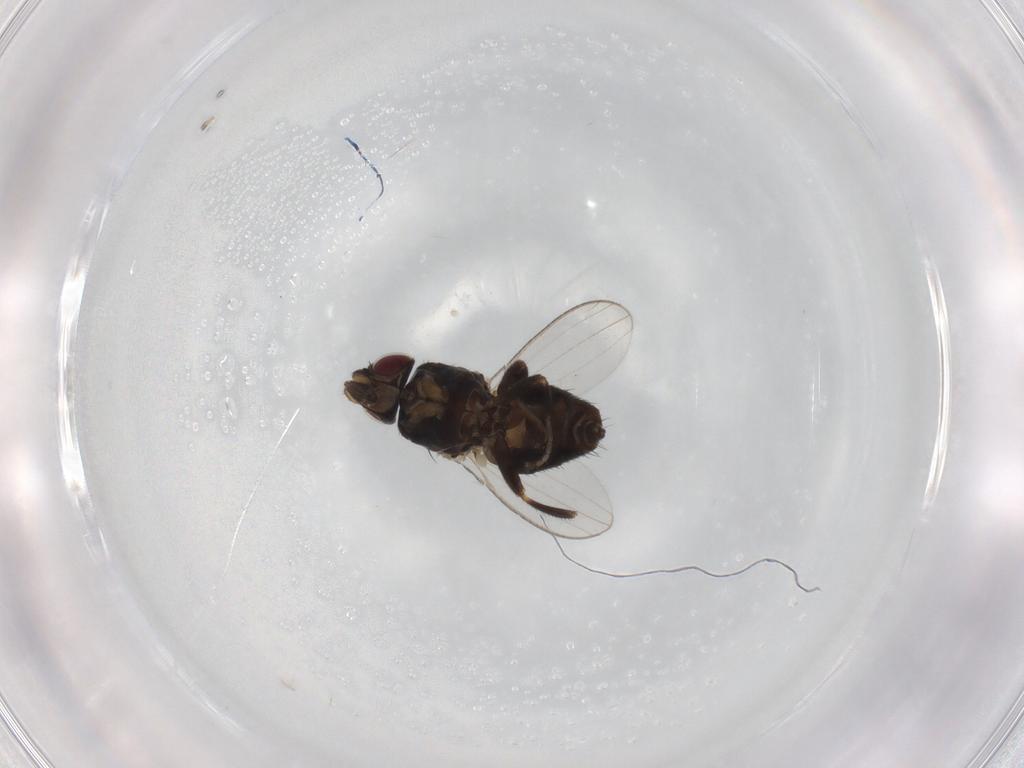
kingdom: Animalia
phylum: Arthropoda
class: Insecta
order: Diptera
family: Milichiidae
